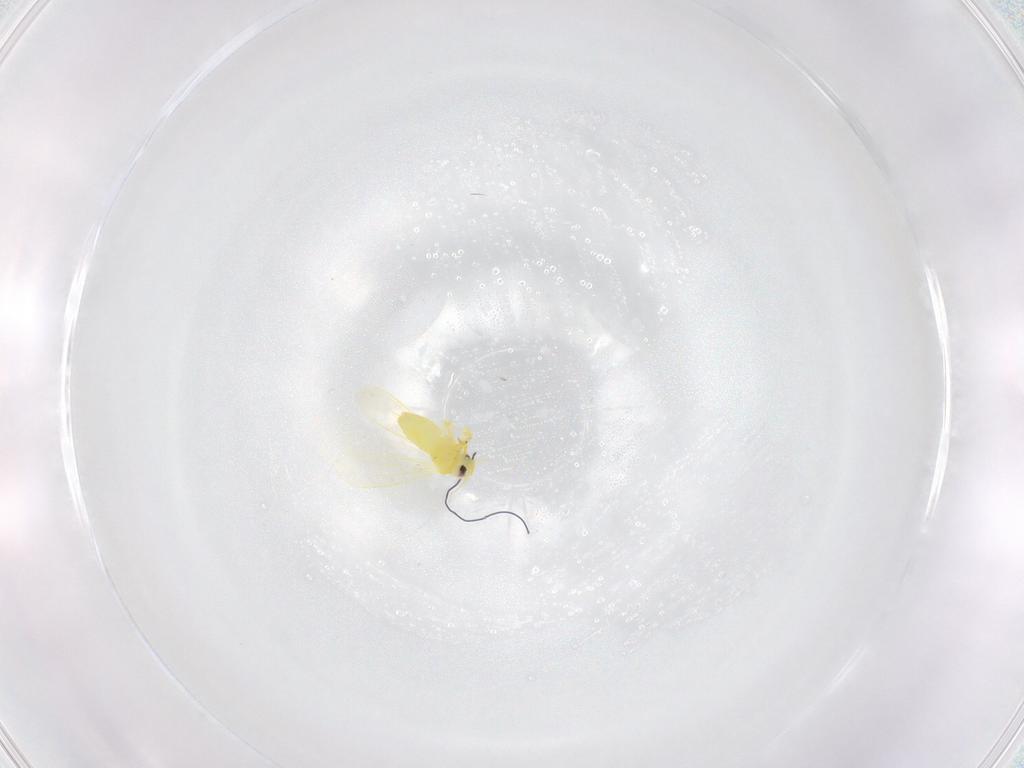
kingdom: Animalia
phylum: Arthropoda
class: Insecta
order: Hemiptera
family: Aleyrodidae
